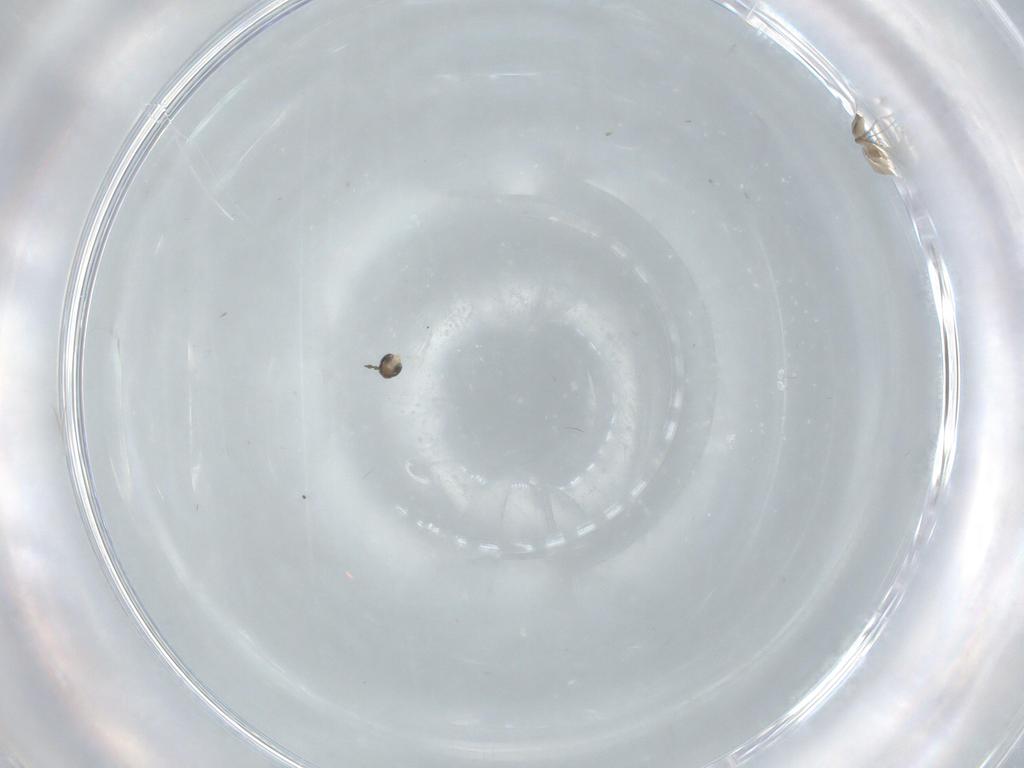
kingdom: Animalia
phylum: Arthropoda
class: Insecta
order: Diptera
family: Cecidomyiidae
